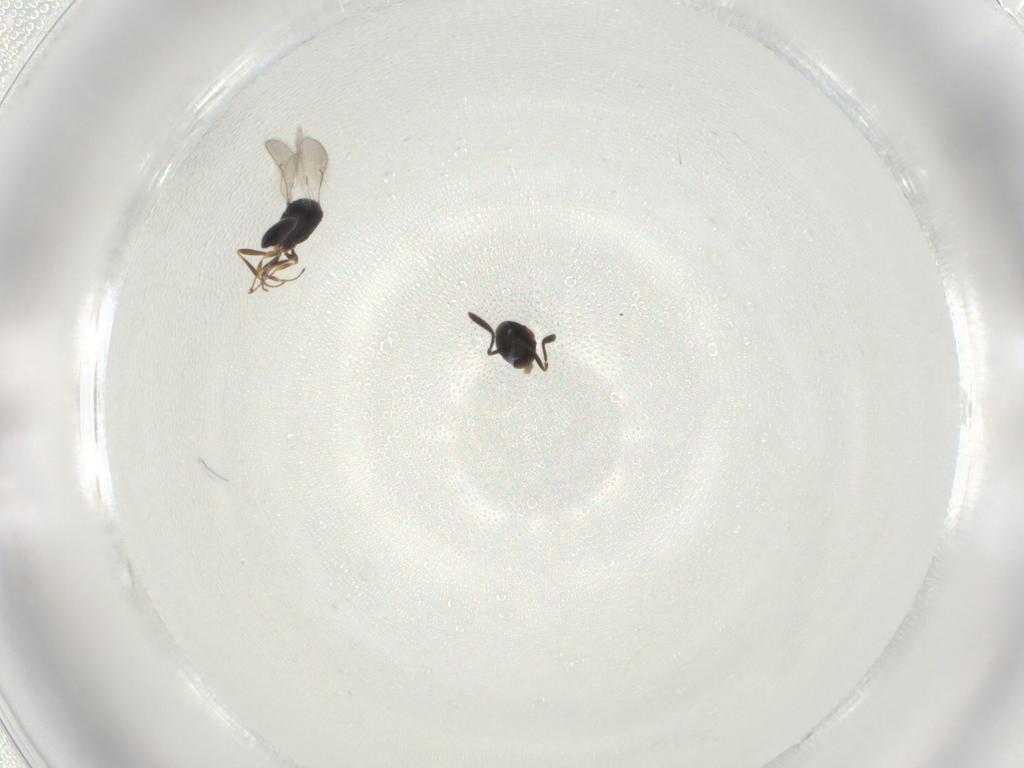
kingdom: Animalia
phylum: Arthropoda
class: Insecta
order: Hymenoptera
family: Scelionidae
